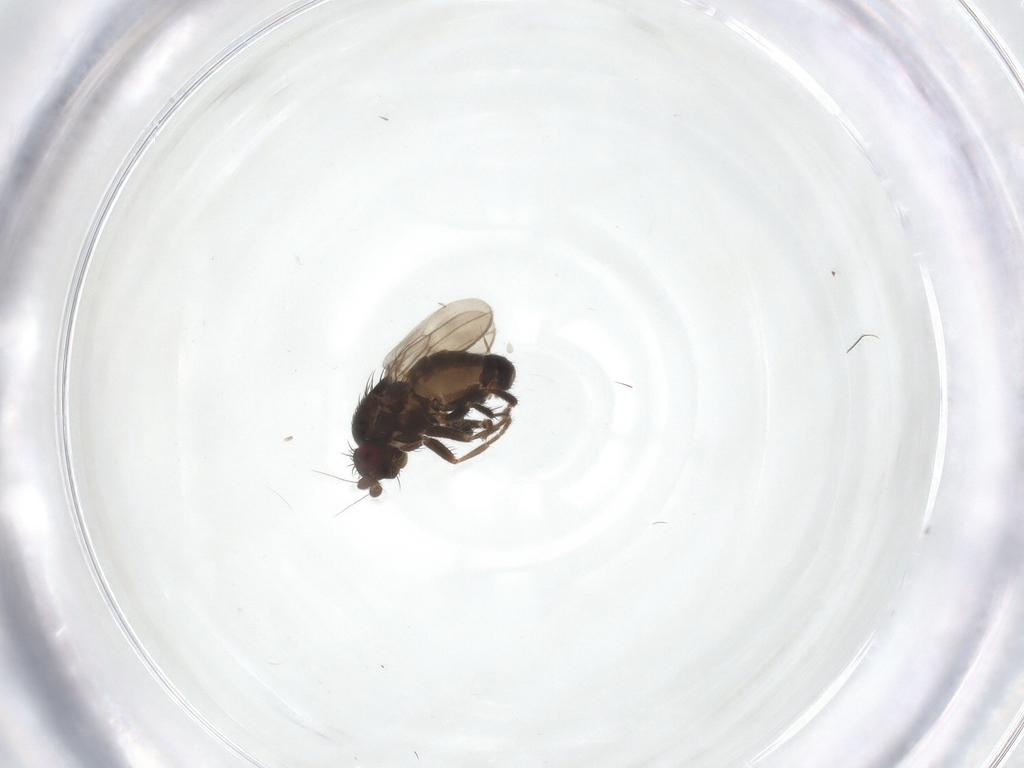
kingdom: Animalia
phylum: Arthropoda
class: Insecta
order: Diptera
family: Sphaeroceridae
